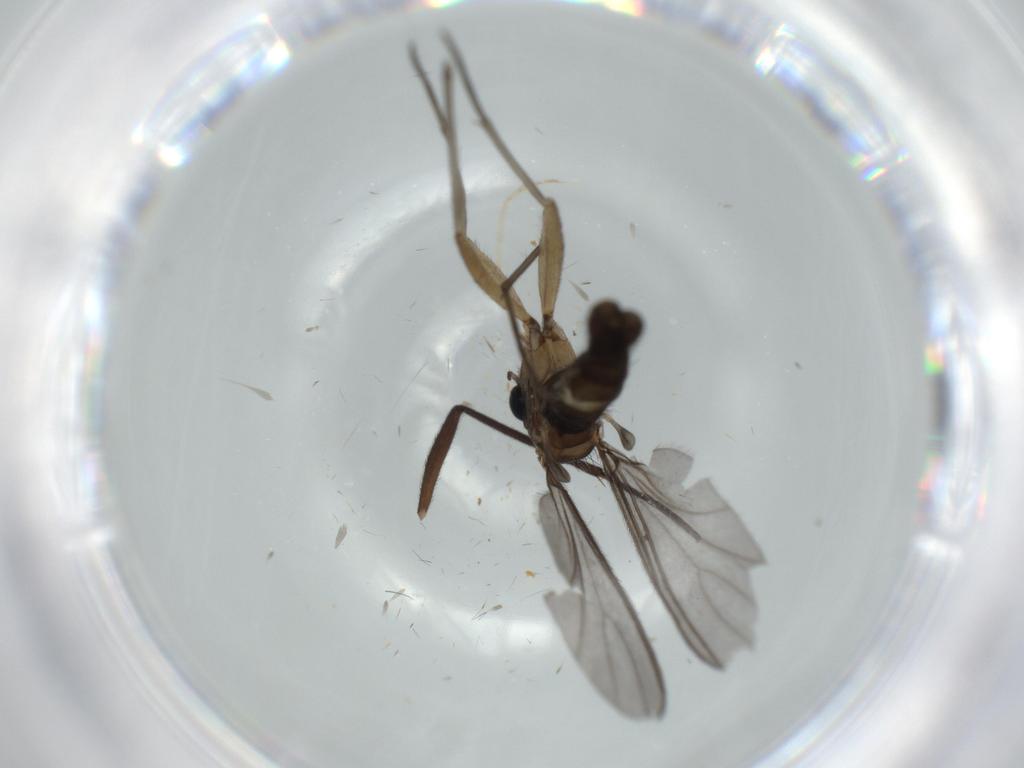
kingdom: Animalia
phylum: Arthropoda
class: Insecta
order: Diptera
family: Sciaridae
